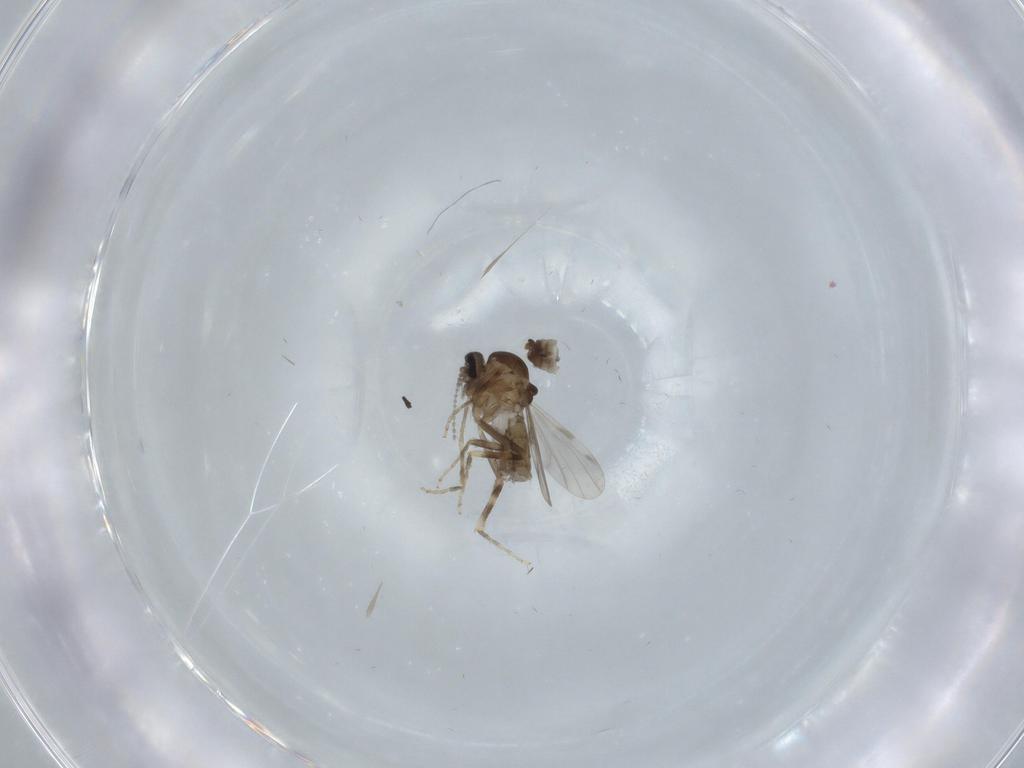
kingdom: Animalia
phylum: Arthropoda
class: Insecta
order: Diptera
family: Ceratopogonidae
